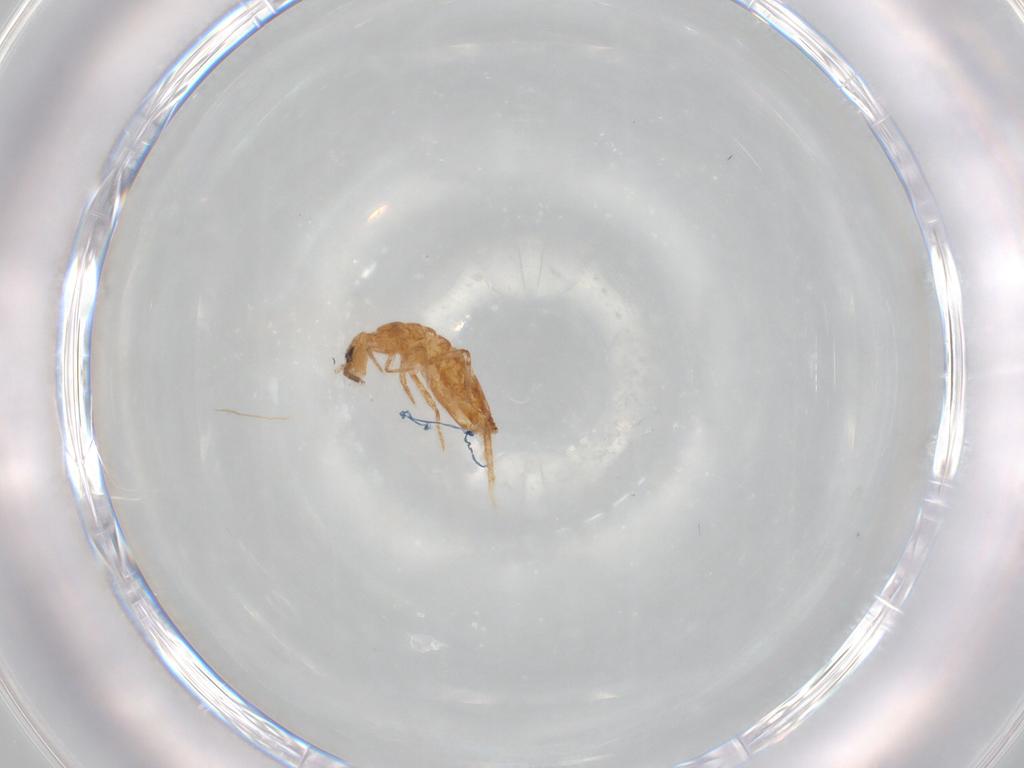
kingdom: Animalia
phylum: Arthropoda
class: Collembola
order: Entomobryomorpha
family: Entomobryidae
